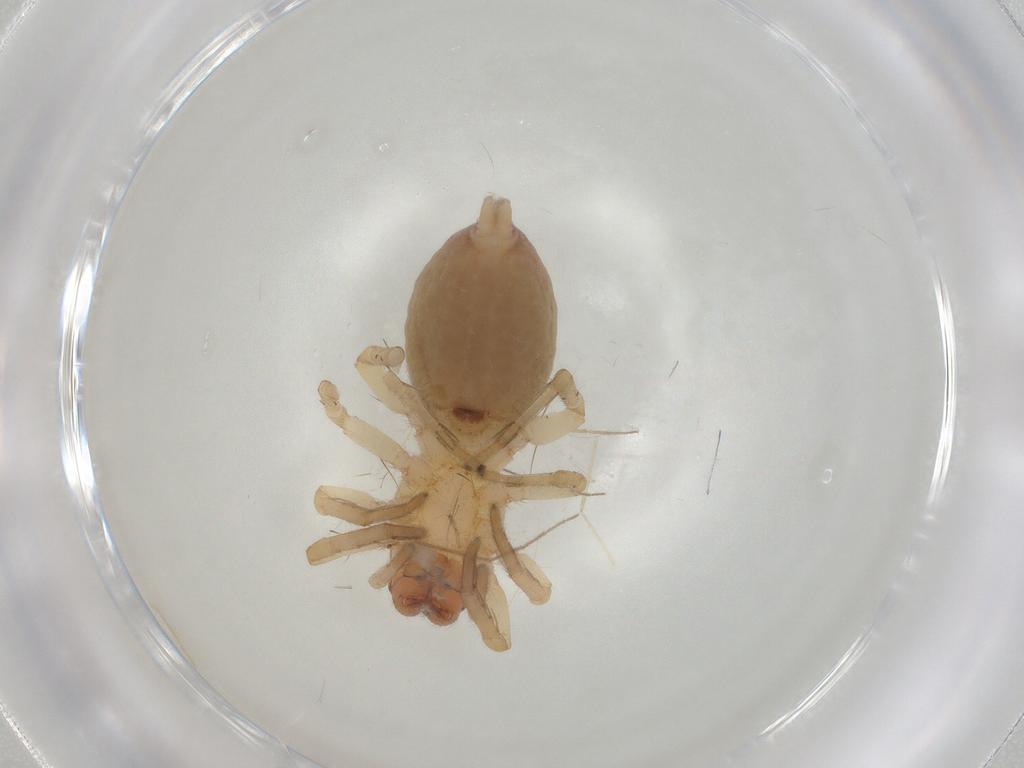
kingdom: Animalia
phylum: Arthropoda
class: Arachnida
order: Araneae
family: Clubionidae
